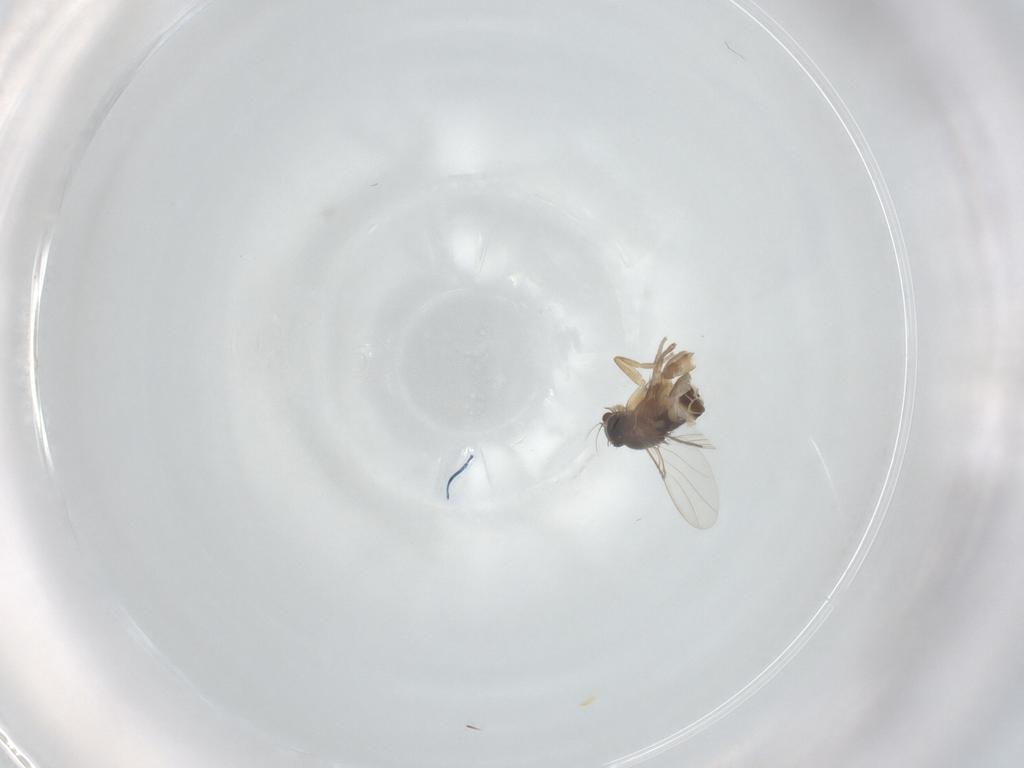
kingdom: Animalia
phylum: Arthropoda
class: Insecta
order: Diptera
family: Phoridae
